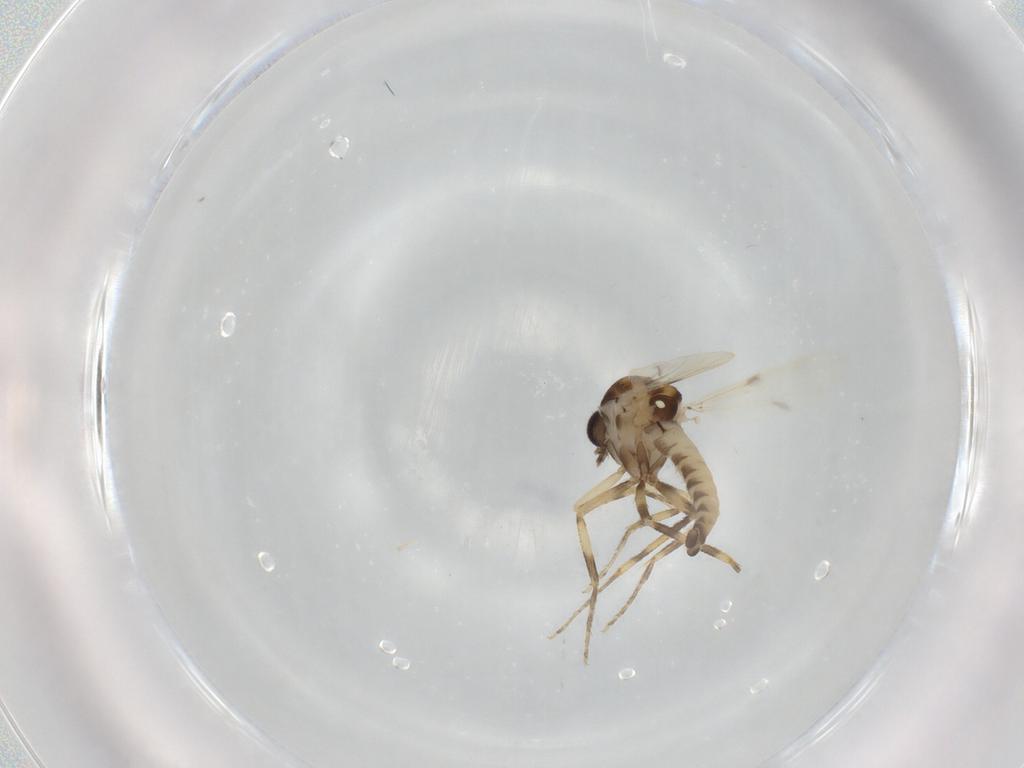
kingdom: Animalia
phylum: Arthropoda
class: Insecta
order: Diptera
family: Ceratopogonidae
